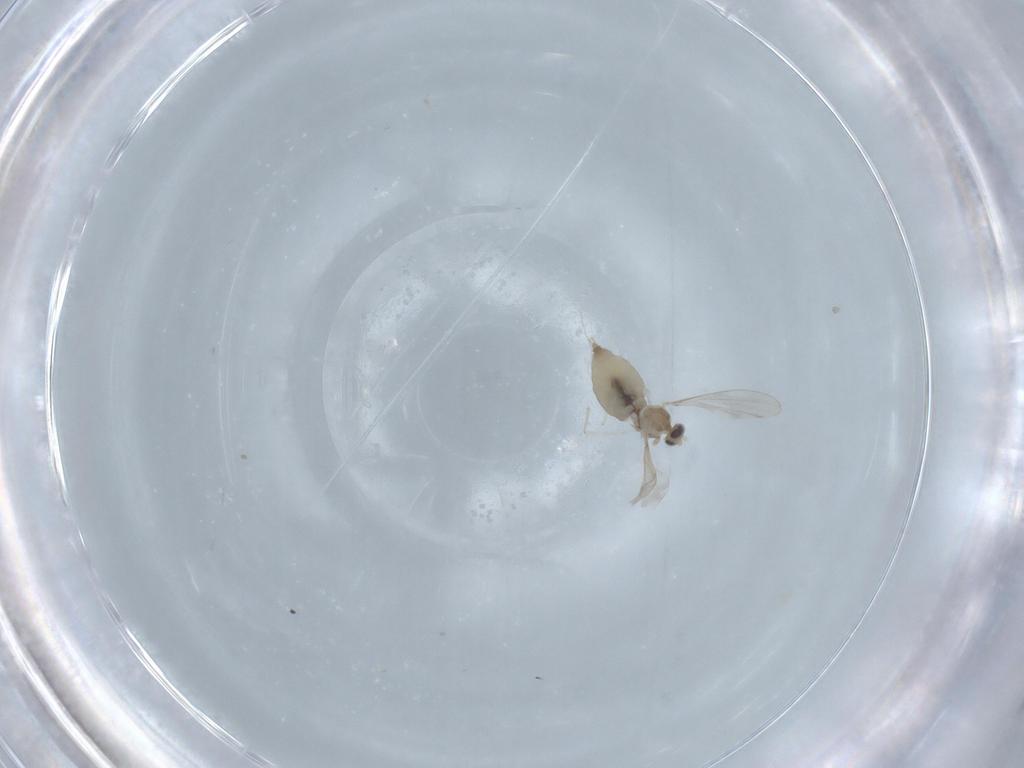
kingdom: Animalia
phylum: Arthropoda
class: Insecta
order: Diptera
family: Cecidomyiidae
